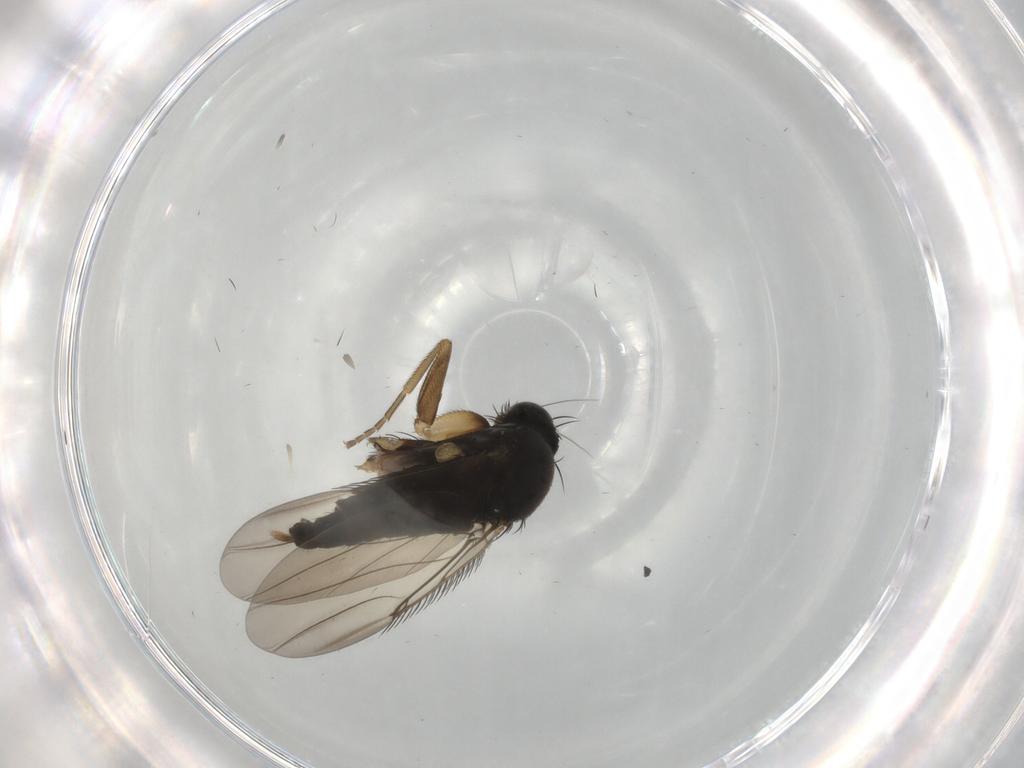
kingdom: Animalia
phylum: Arthropoda
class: Insecta
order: Diptera
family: Phoridae
